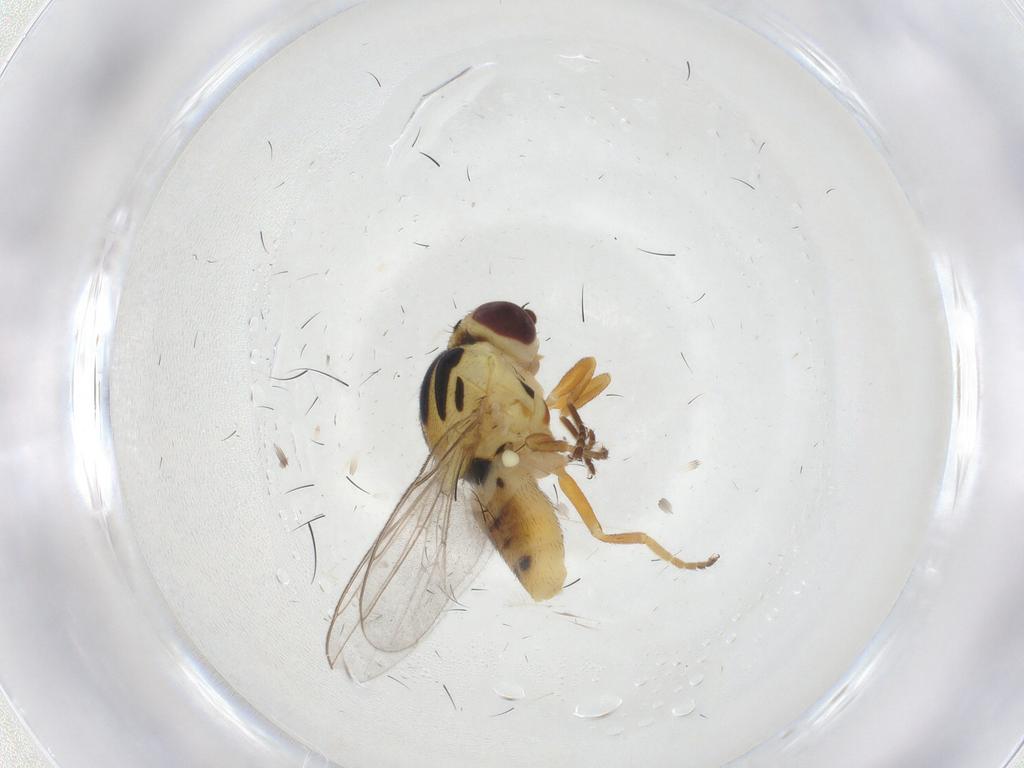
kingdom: Animalia
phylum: Arthropoda
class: Insecta
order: Diptera
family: Chloropidae
